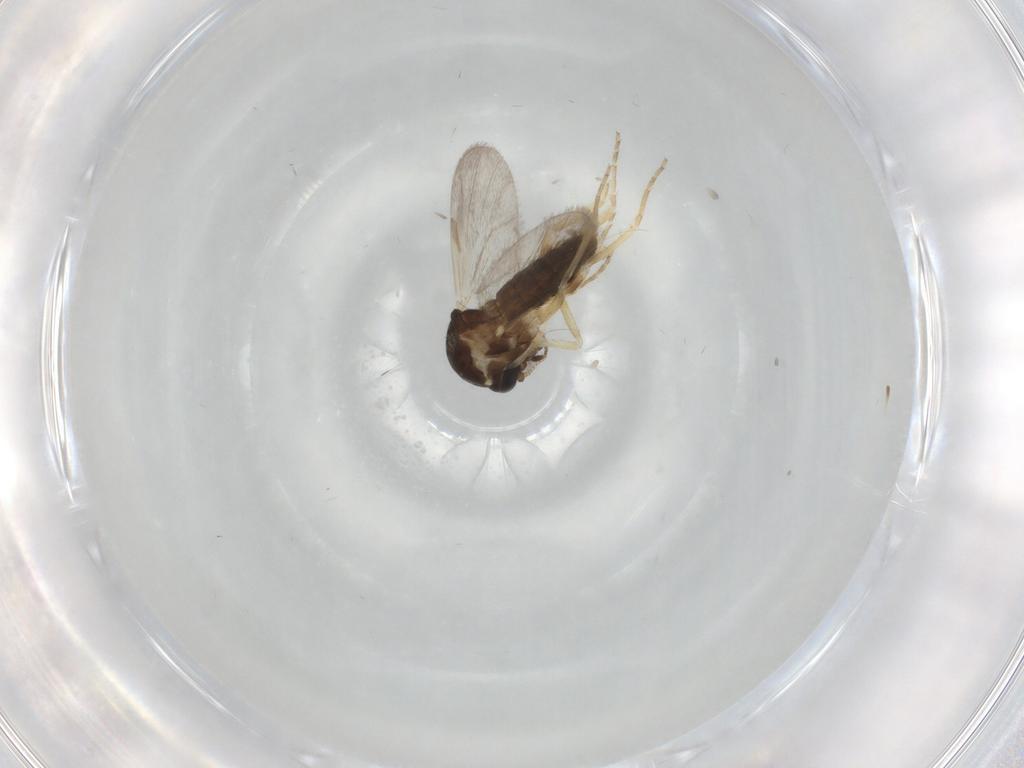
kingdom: Animalia
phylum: Arthropoda
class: Insecta
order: Diptera
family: Ceratopogonidae
